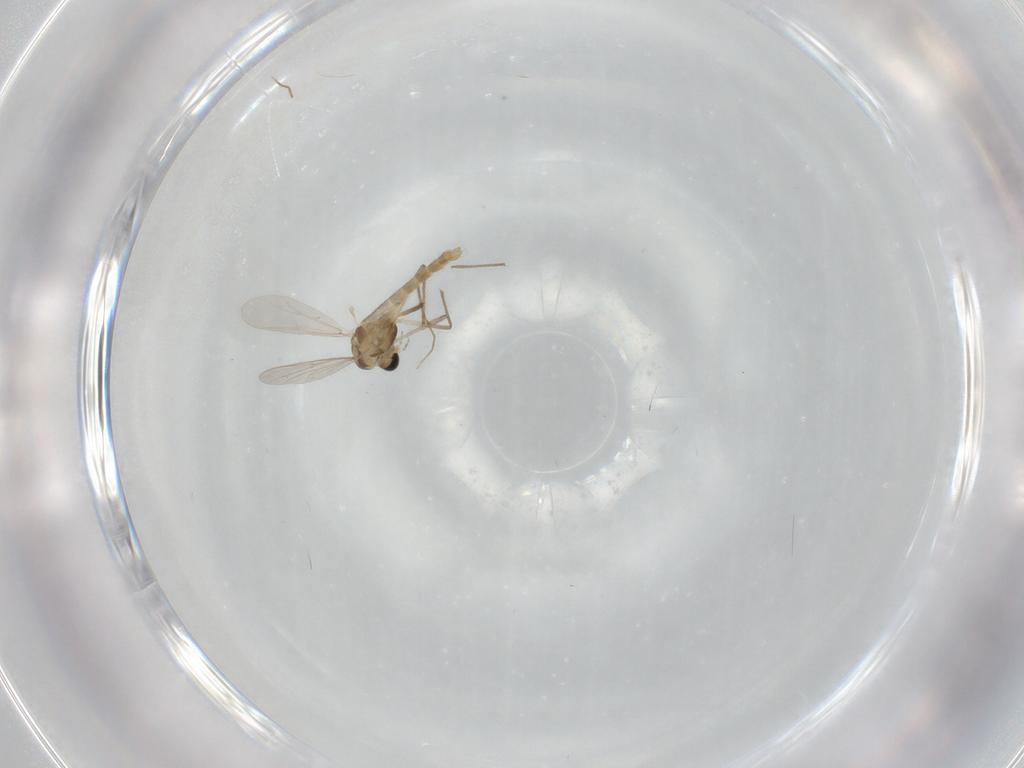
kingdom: Animalia
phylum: Arthropoda
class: Insecta
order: Diptera
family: Chironomidae
